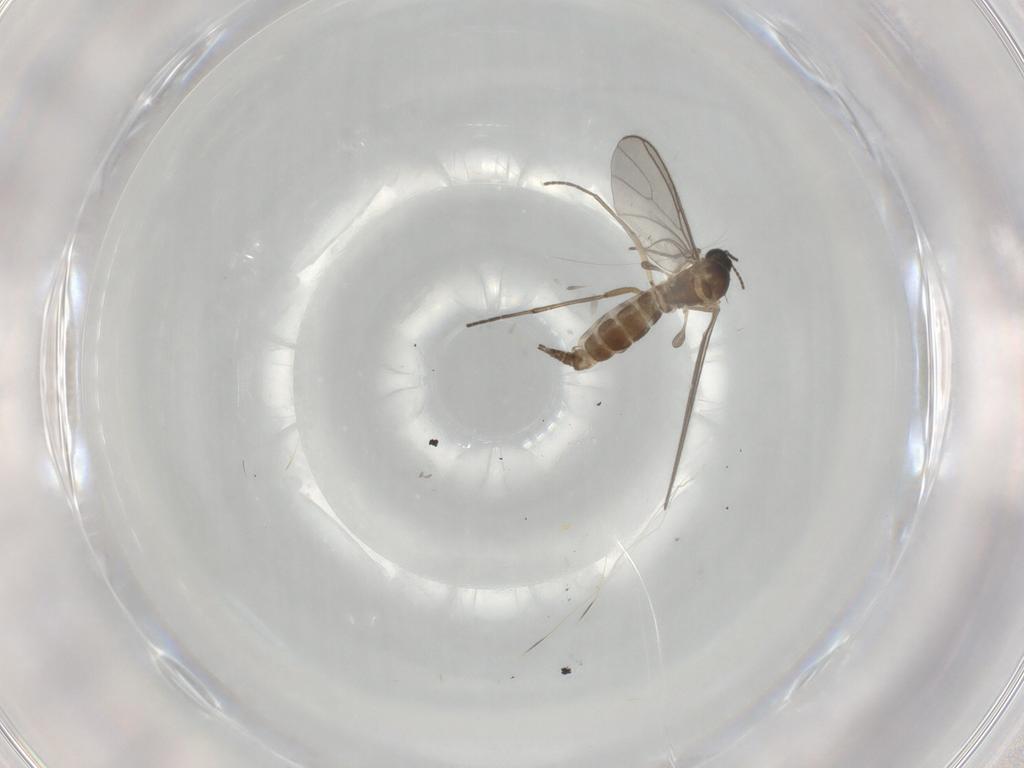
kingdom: Animalia
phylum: Arthropoda
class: Insecta
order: Diptera
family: Sciaridae
